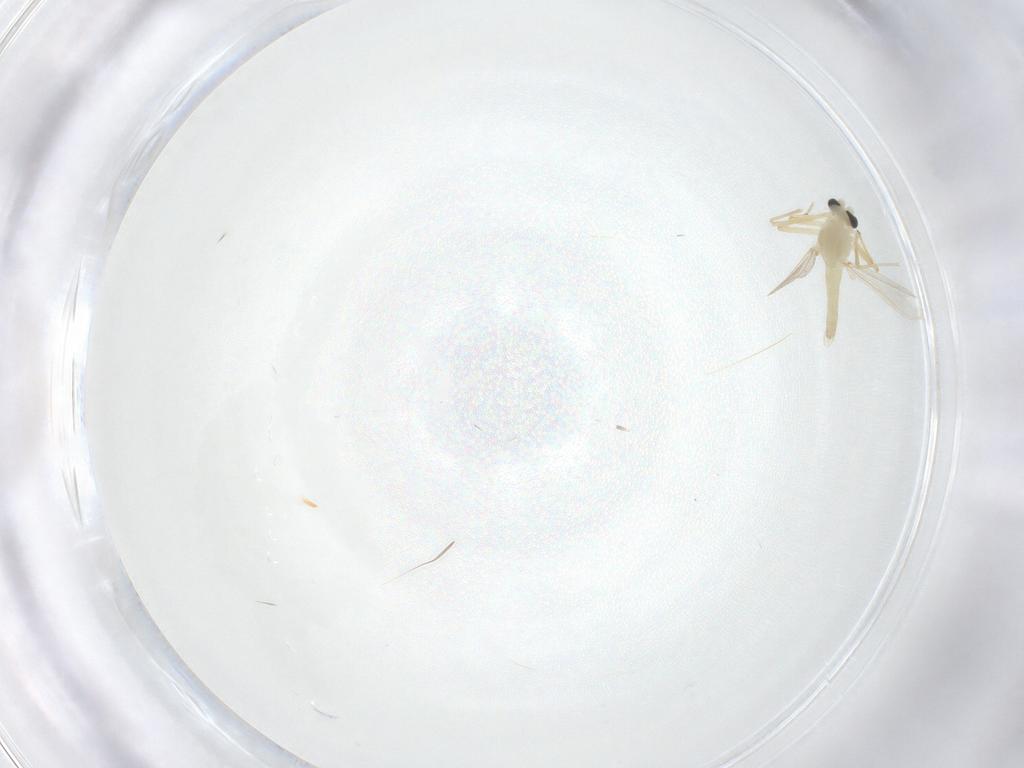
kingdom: Animalia
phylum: Arthropoda
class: Insecta
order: Diptera
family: Chironomidae
